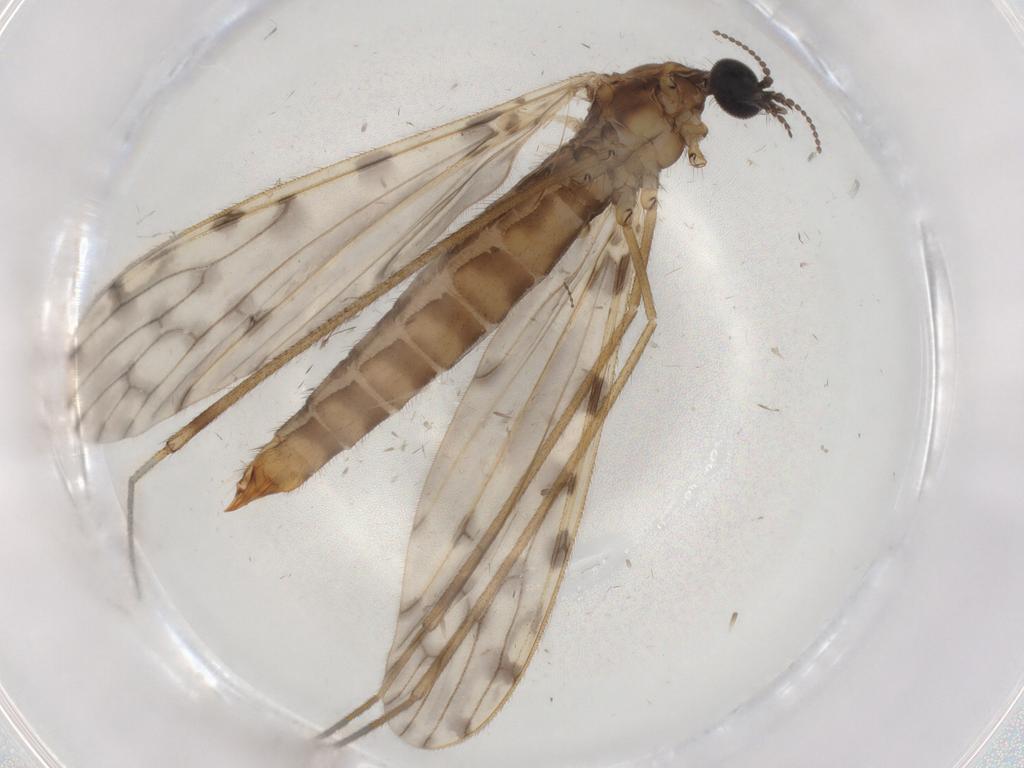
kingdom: Animalia
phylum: Arthropoda
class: Insecta
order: Diptera
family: Limoniidae
